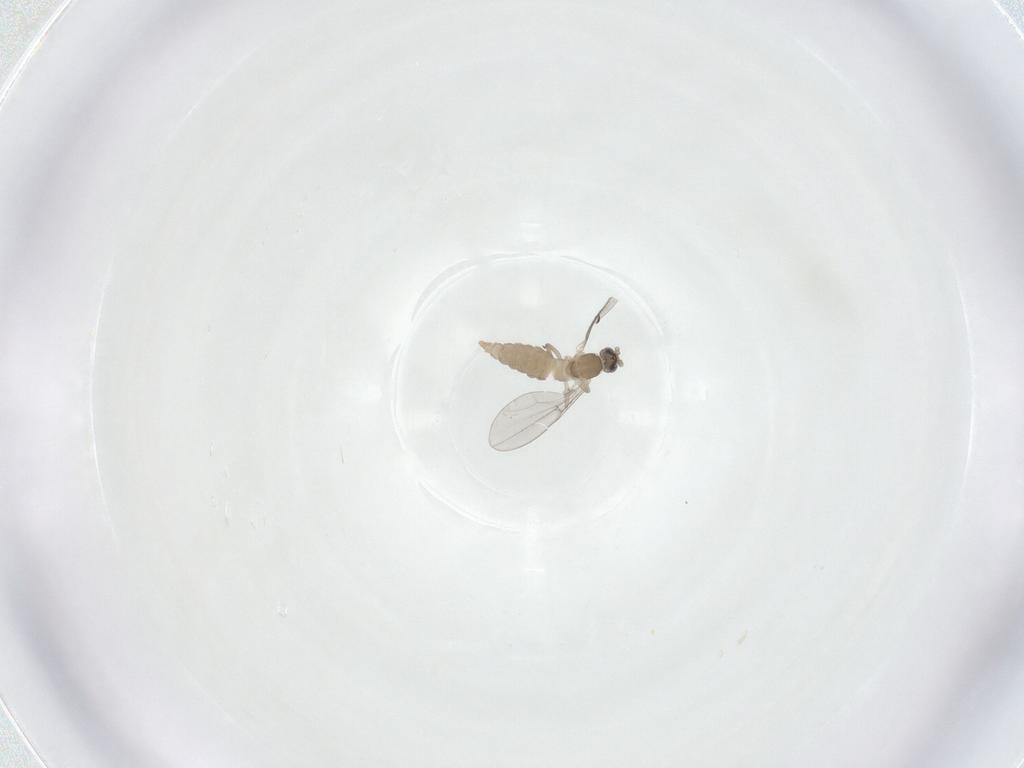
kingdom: Animalia
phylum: Arthropoda
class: Insecta
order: Diptera
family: Cecidomyiidae
